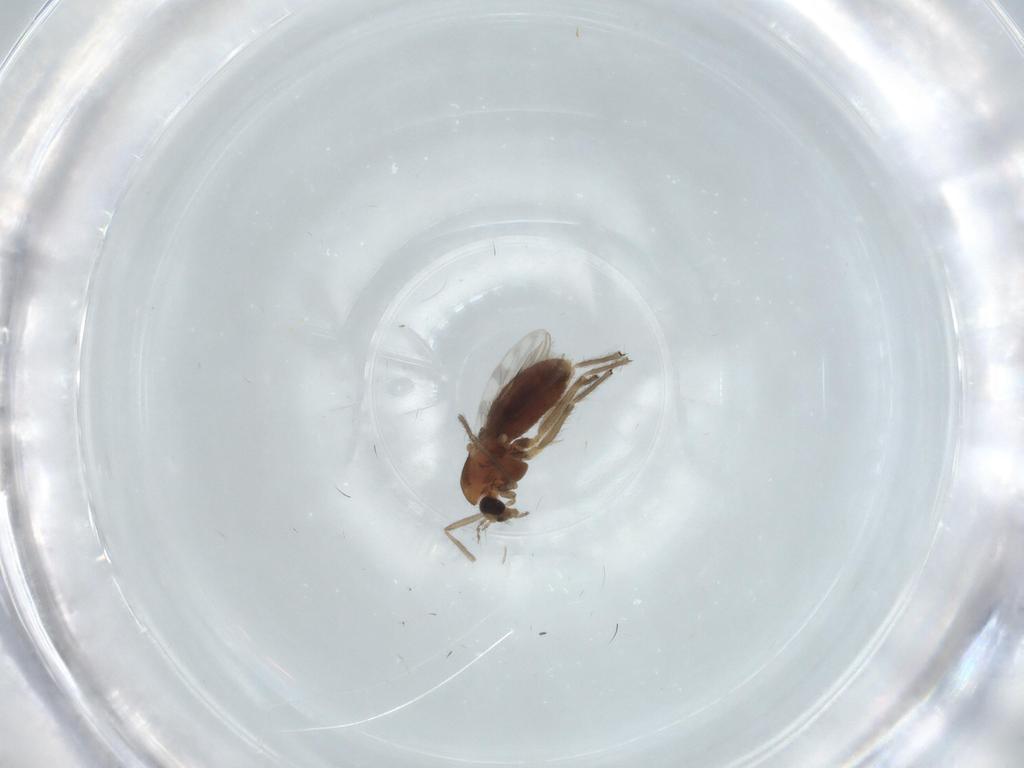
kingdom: Animalia
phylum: Arthropoda
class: Insecta
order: Diptera
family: Chironomidae
